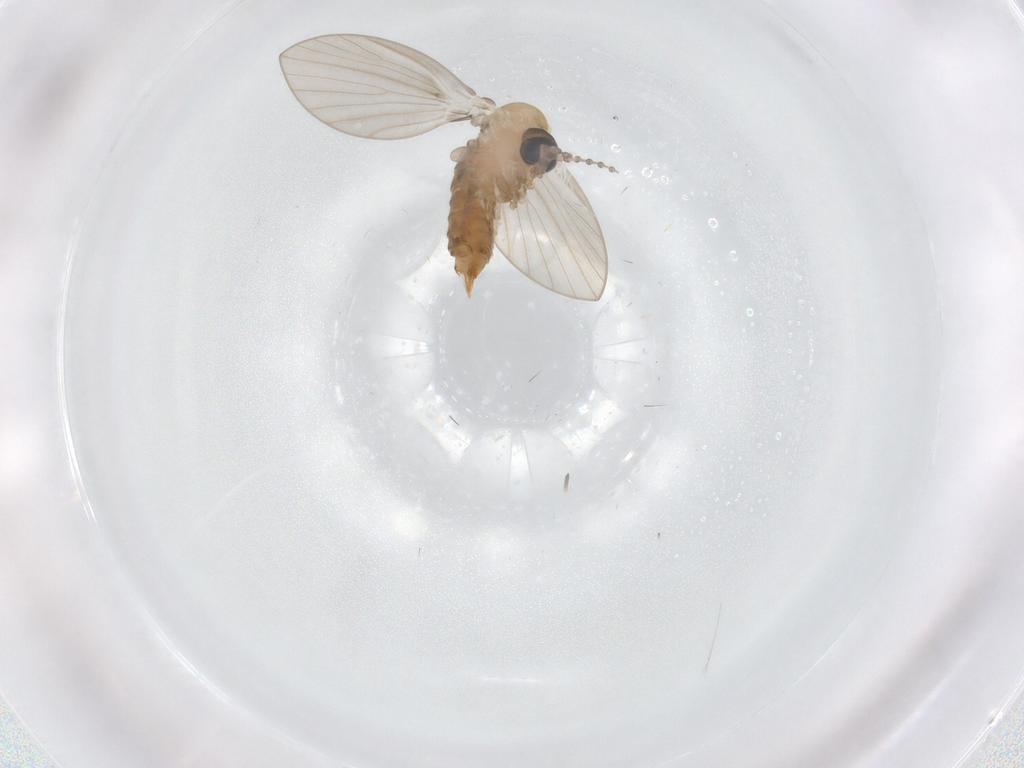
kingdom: Animalia
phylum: Arthropoda
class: Insecta
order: Diptera
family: Psychodidae
